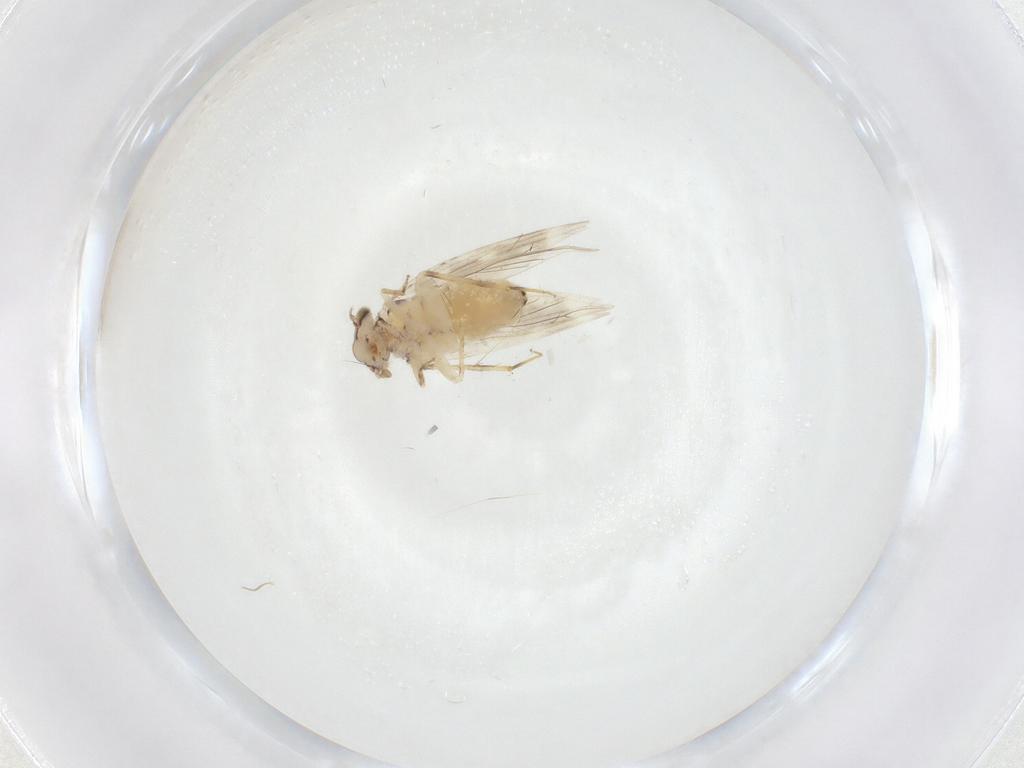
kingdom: Animalia
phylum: Arthropoda
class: Insecta
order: Psocodea
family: Lepidopsocidae
